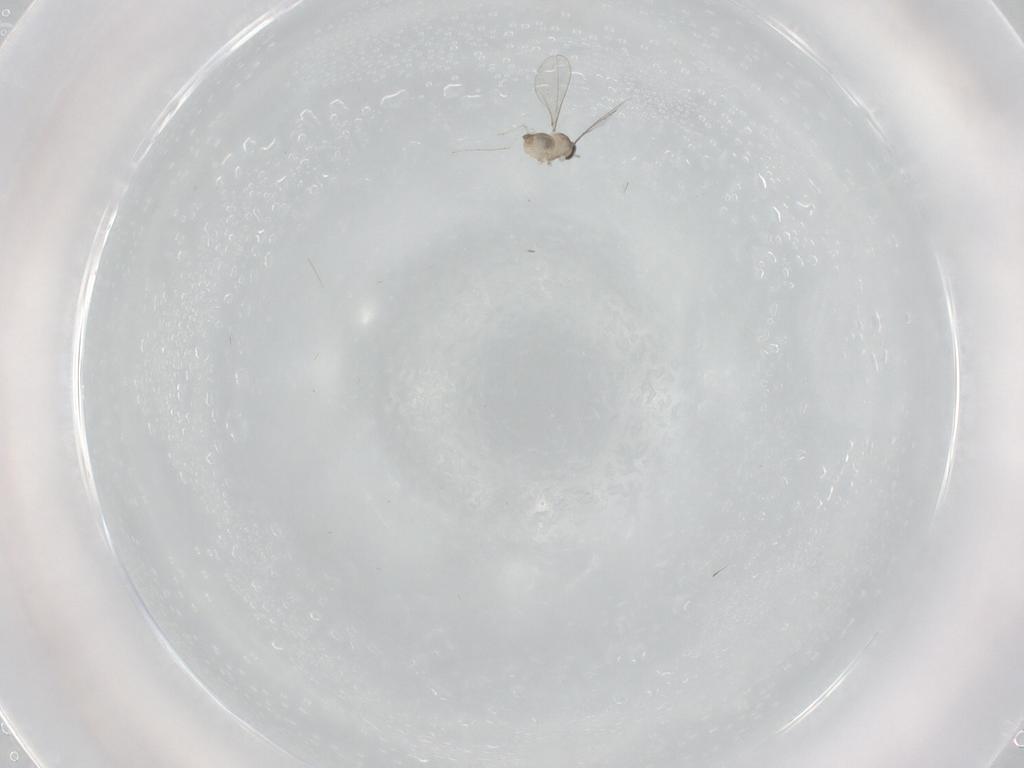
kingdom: Animalia
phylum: Arthropoda
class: Insecta
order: Diptera
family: Cecidomyiidae
